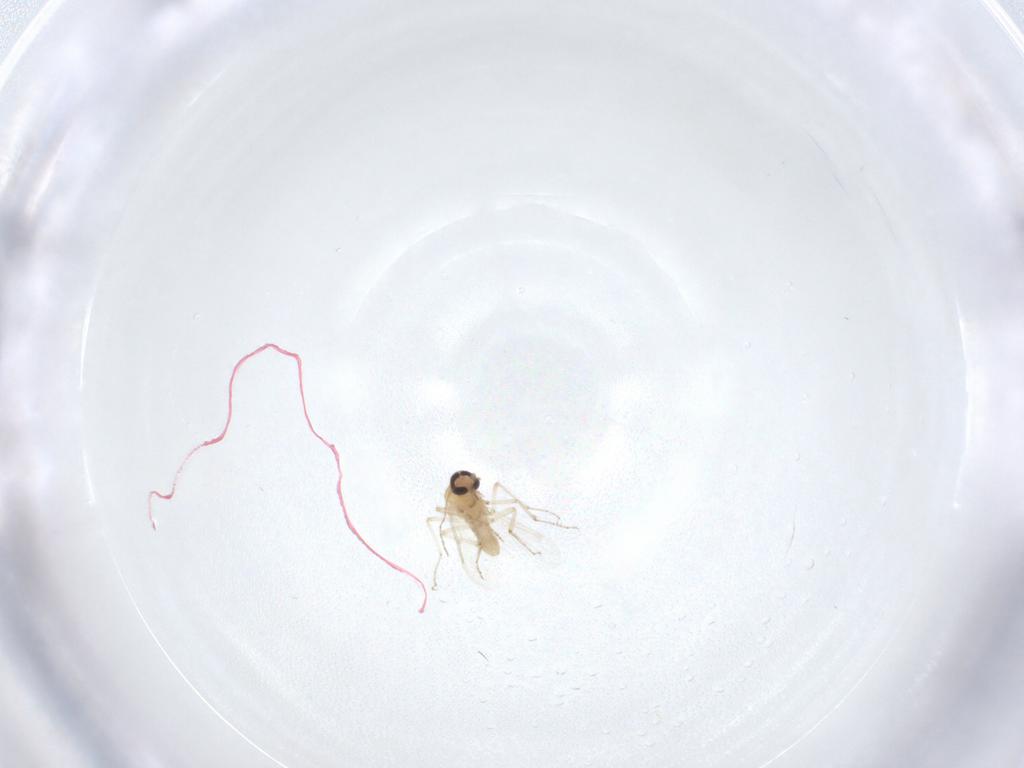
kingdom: Animalia
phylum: Arthropoda
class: Insecta
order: Diptera
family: Ceratopogonidae
